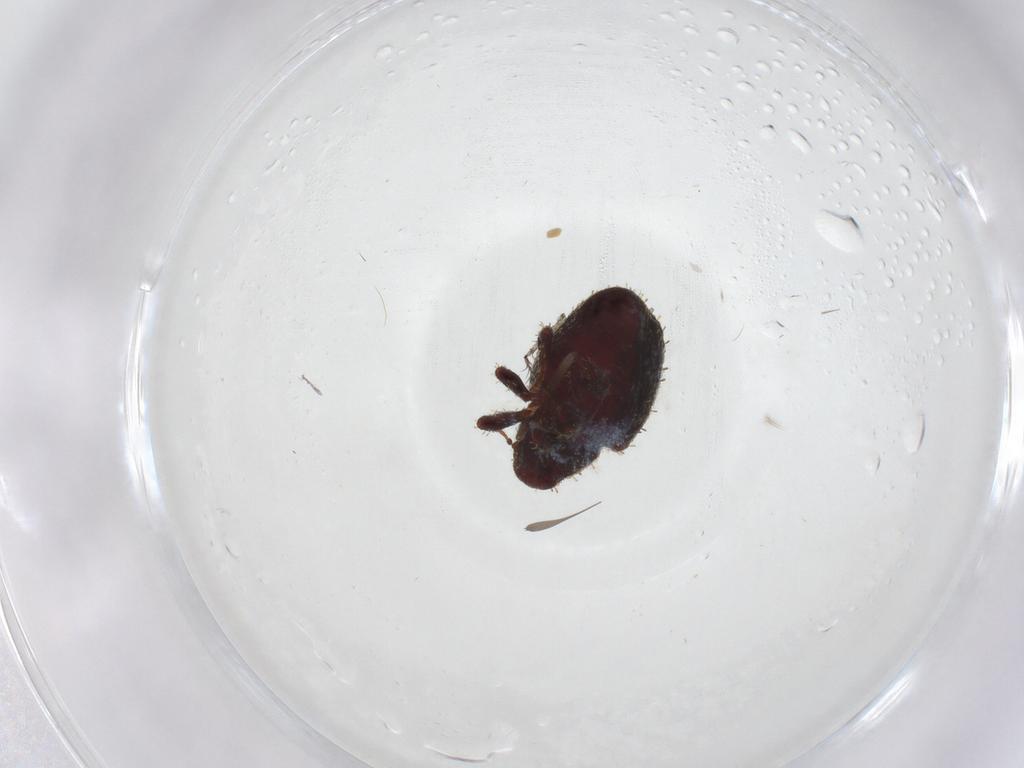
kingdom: Animalia
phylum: Arthropoda
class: Insecta
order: Coleoptera
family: Curculionidae
